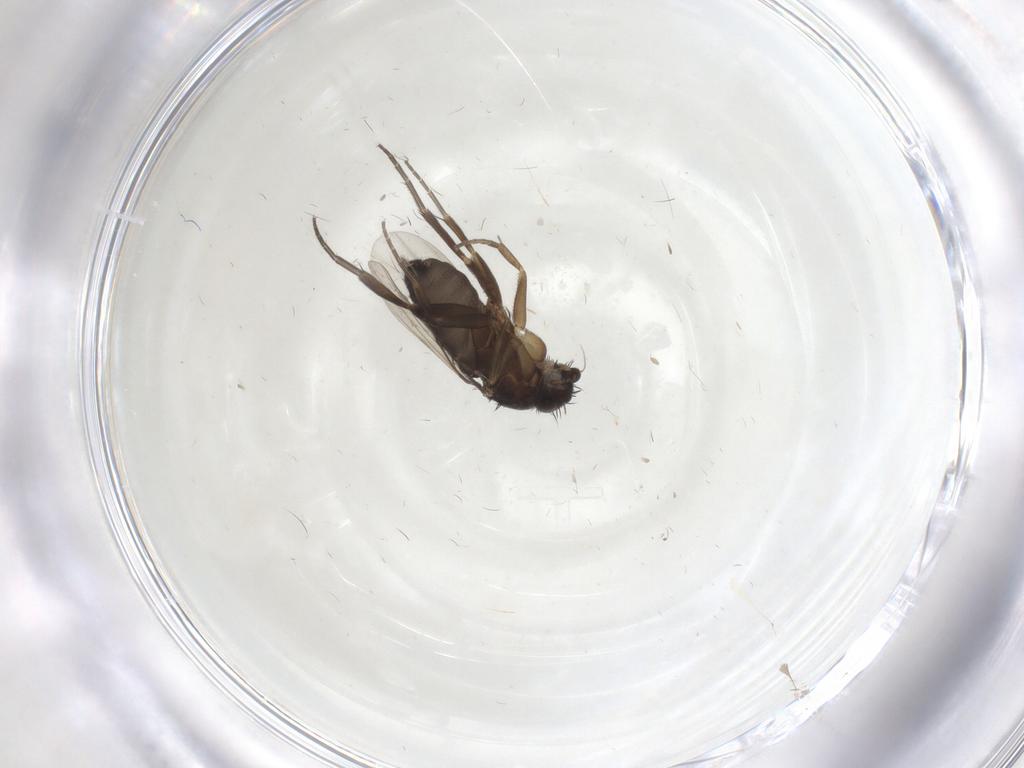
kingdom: Animalia
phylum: Arthropoda
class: Insecta
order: Diptera
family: Phoridae
